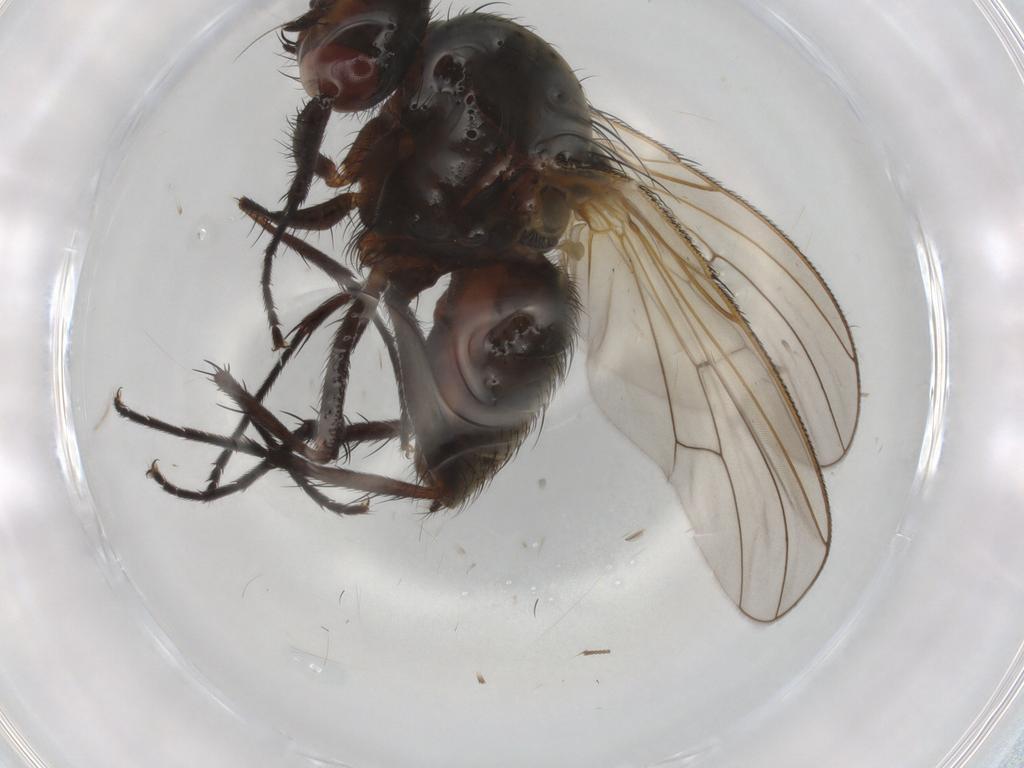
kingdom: Animalia
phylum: Arthropoda
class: Insecta
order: Diptera
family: Anthomyiidae
